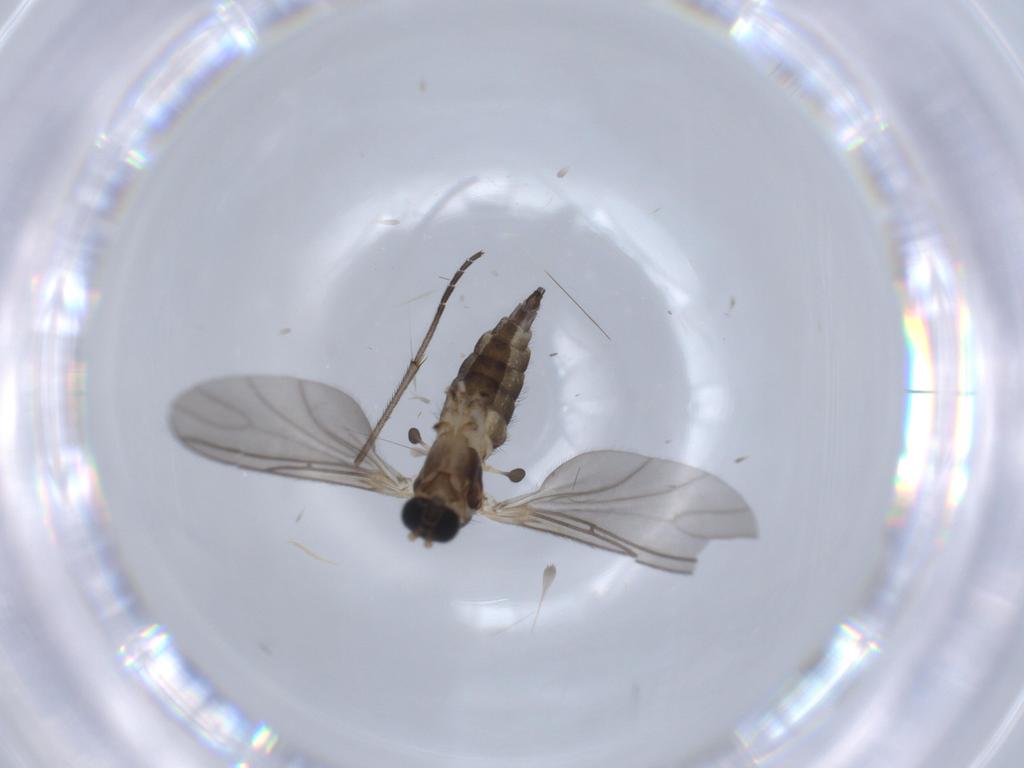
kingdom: Animalia
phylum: Arthropoda
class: Insecta
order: Diptera
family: Sciaridae
